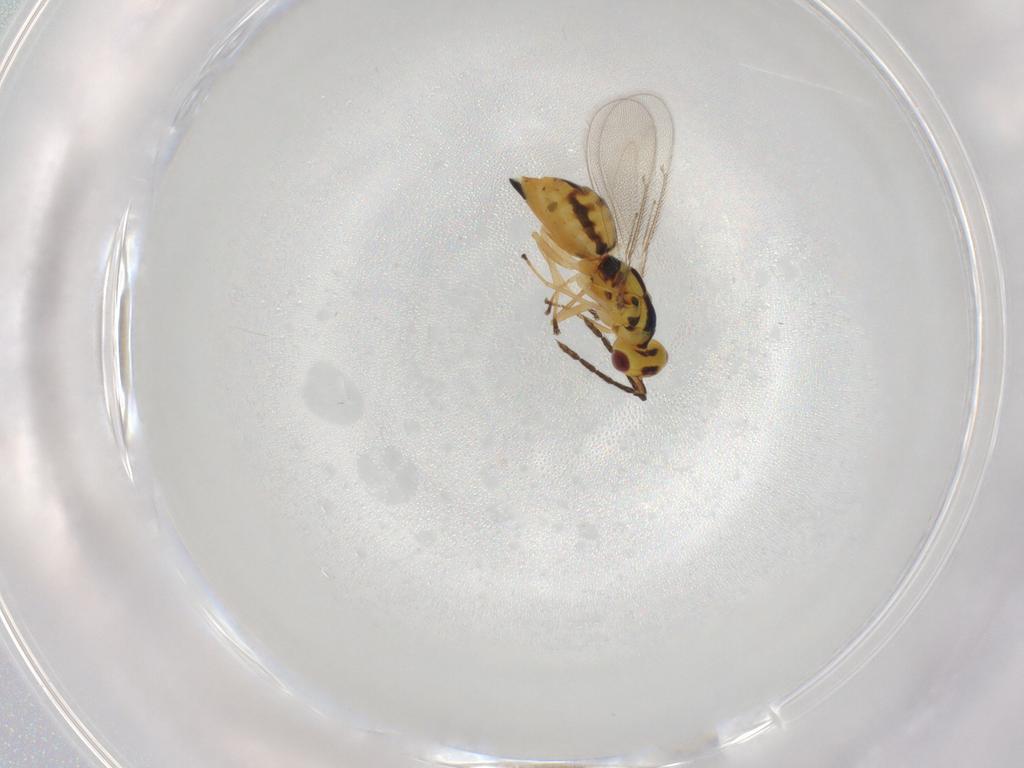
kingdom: Animalia
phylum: Arthropoda
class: Insecta
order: Hymenoptera
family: Eulophidae
